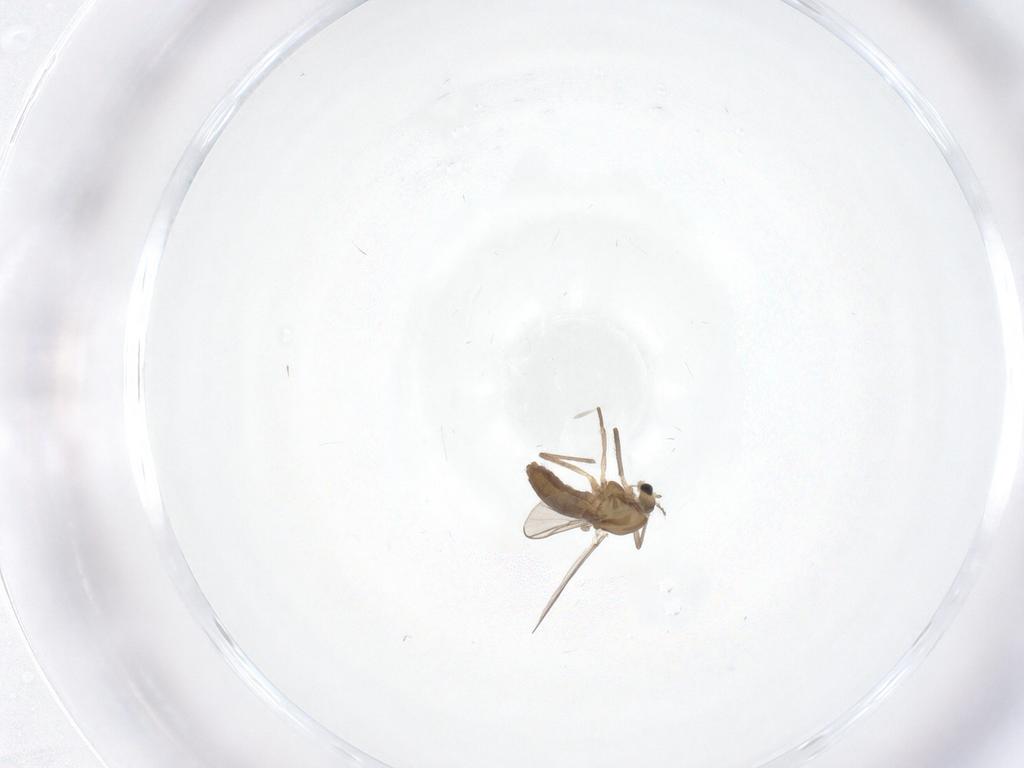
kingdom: Animalia
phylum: Arthropoda
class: Insecta
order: Diptera
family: Chironomidae
